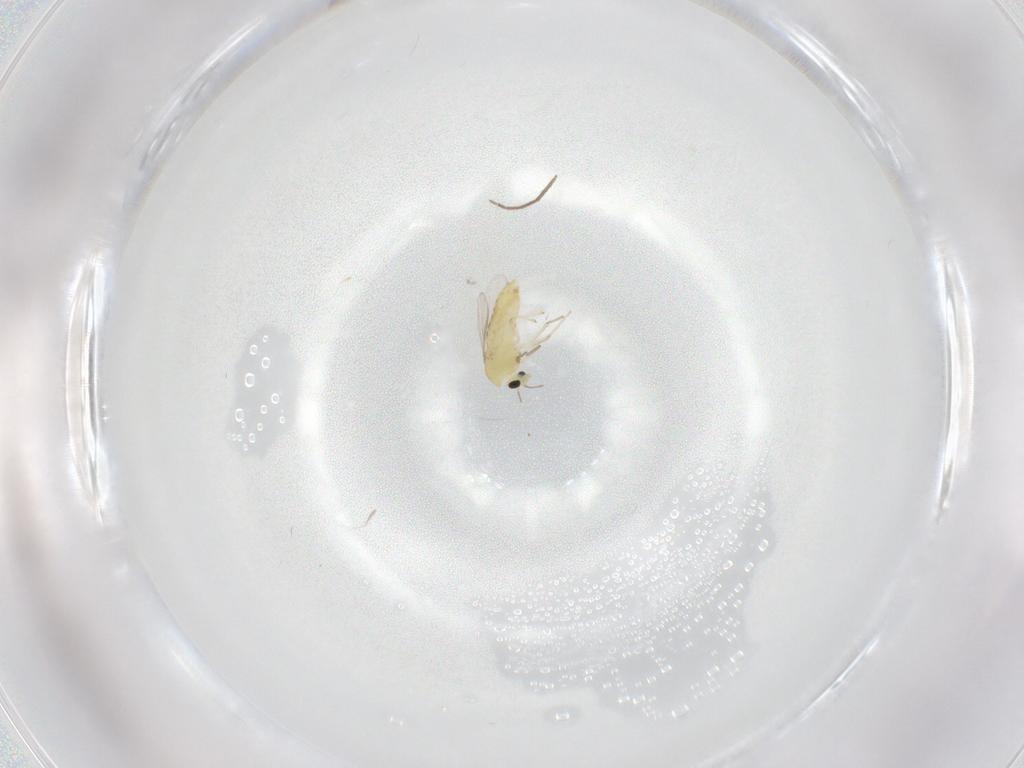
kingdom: Animalia
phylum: Arthropoda
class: Insecta
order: Diptera
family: Chironomidae
